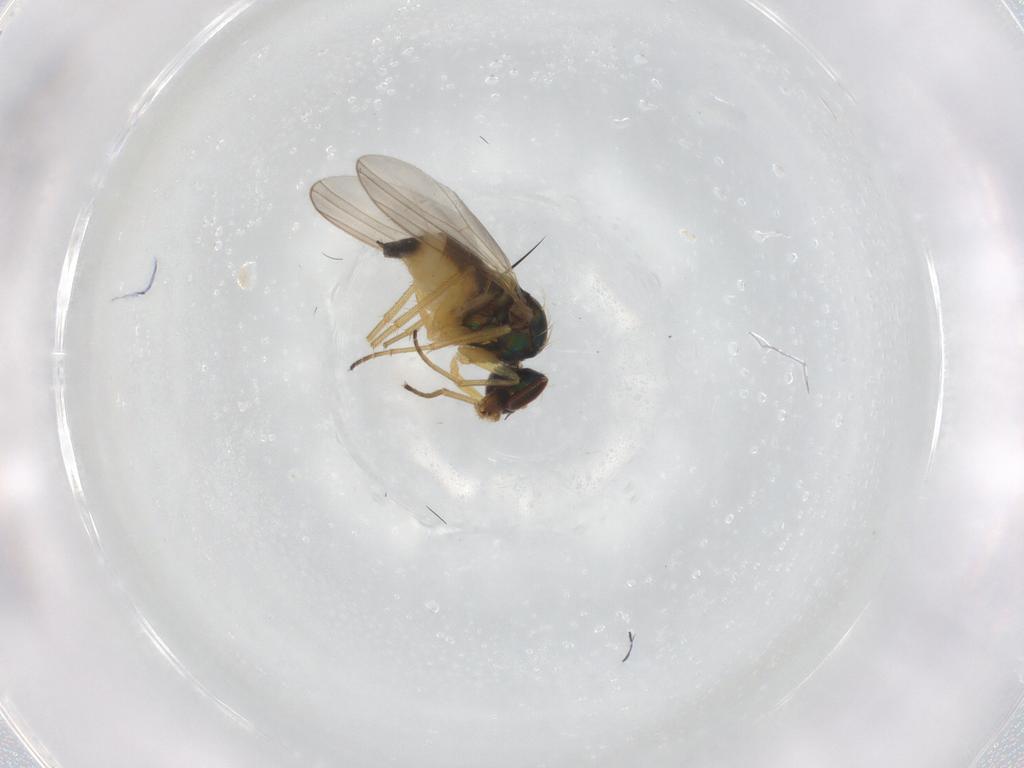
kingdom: Animalia
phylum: Arthropoda
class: Insecta
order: Diptera
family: Dolichopodidae
